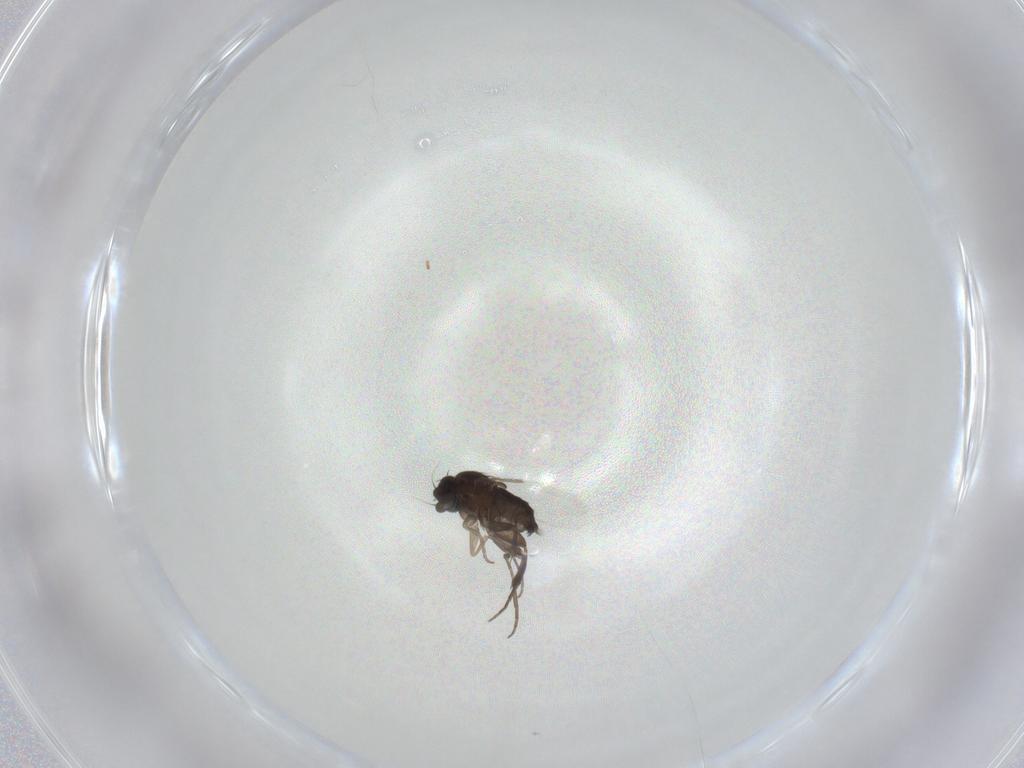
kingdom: Animalia
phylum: Arthropoda
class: Insecta
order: Diptera
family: Phoridae
